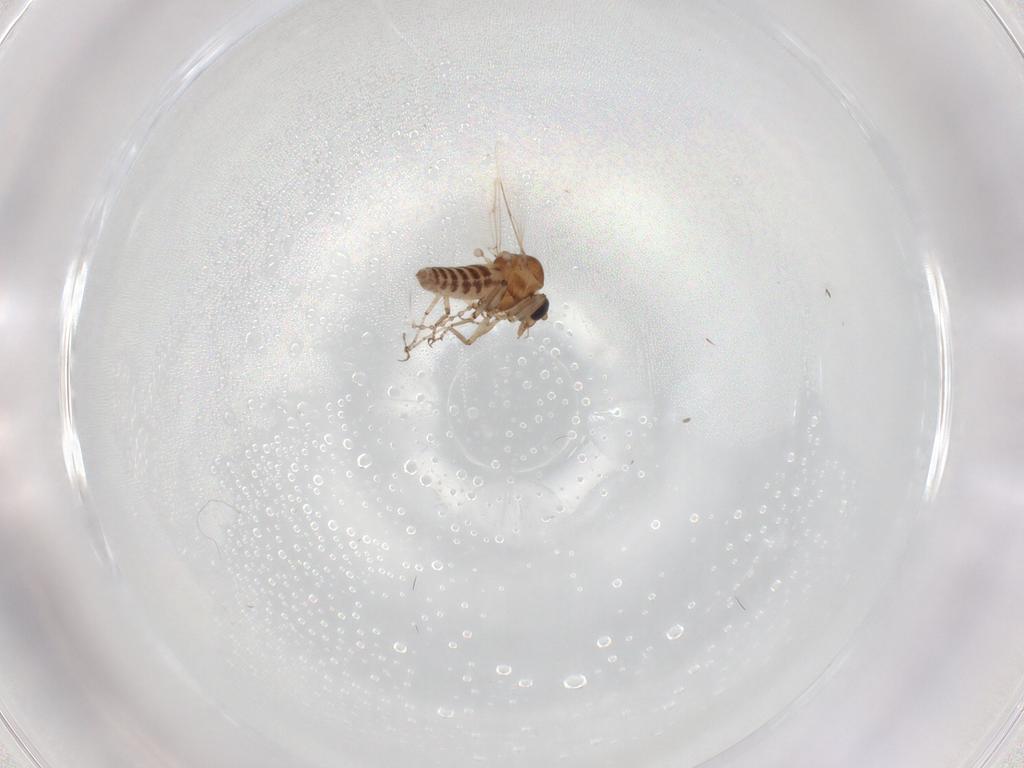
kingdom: Animalia
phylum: Arthropoda
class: Insecta
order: Diptera
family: Ceratopogonidae
